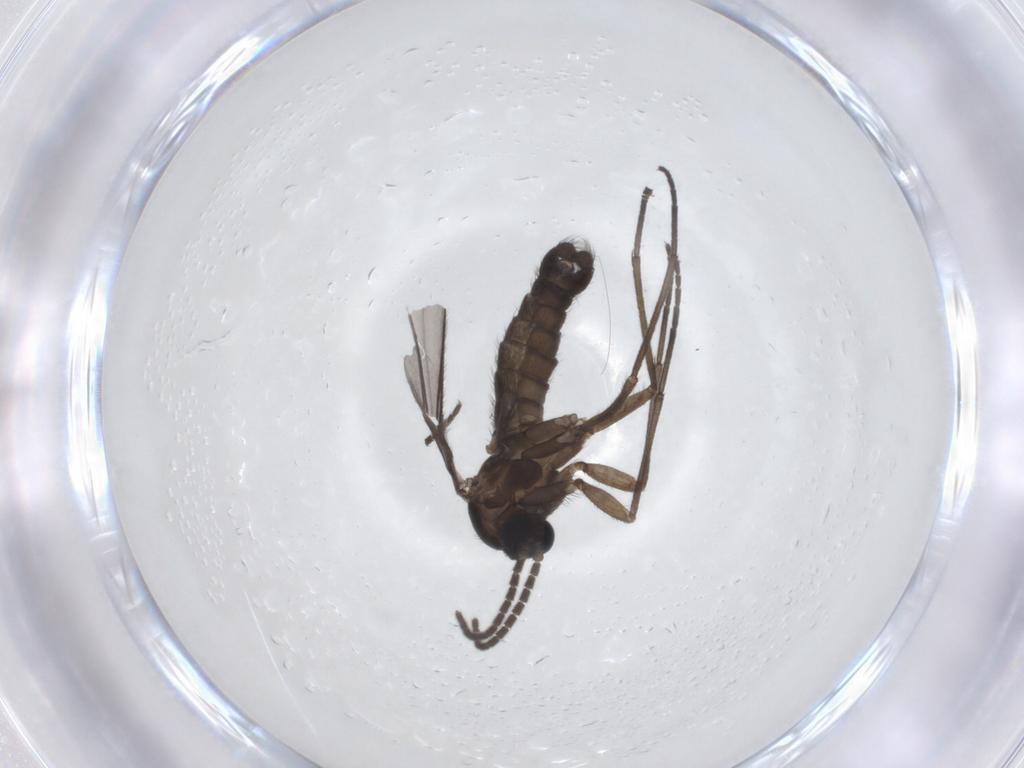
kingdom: Animalia
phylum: Arthropoda
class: Insecta
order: Diptera
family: Sciaridae
